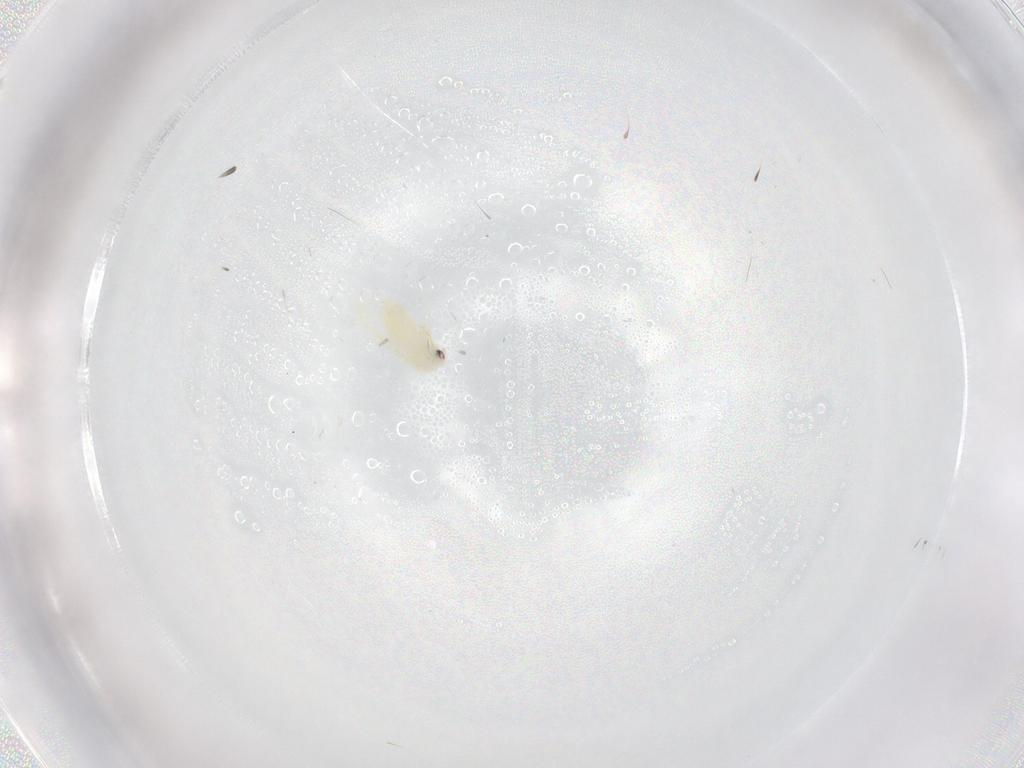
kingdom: Animalia
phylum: Arthropoda
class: Insecta
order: Hemiptera
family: Cicadellidae
